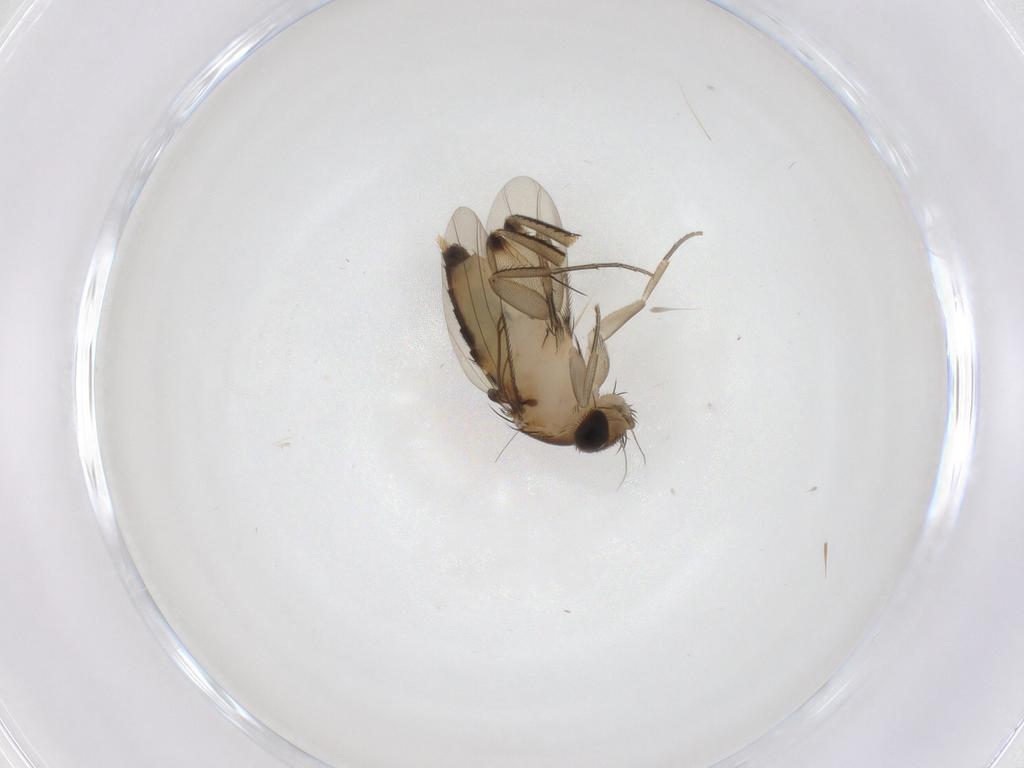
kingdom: Animalia
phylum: Arthropoda
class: Insecta
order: Diptera
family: Phoridae
